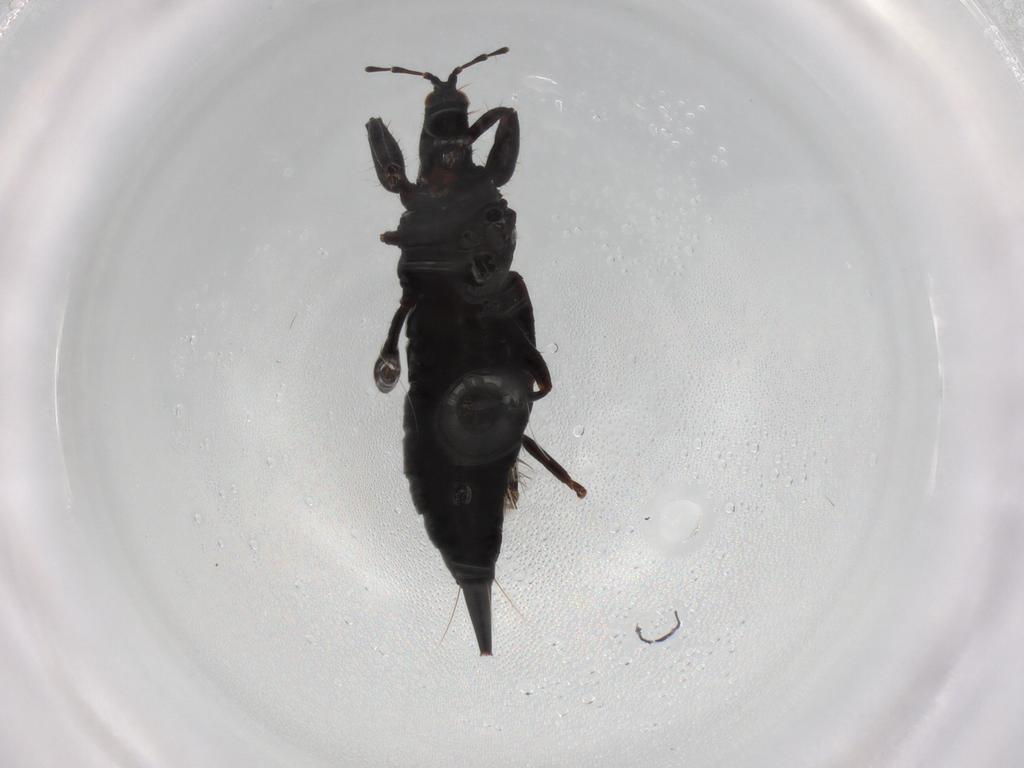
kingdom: Animalia
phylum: Arthropoda
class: Insecta
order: Thysanoptera
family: Phlaeothripidae
